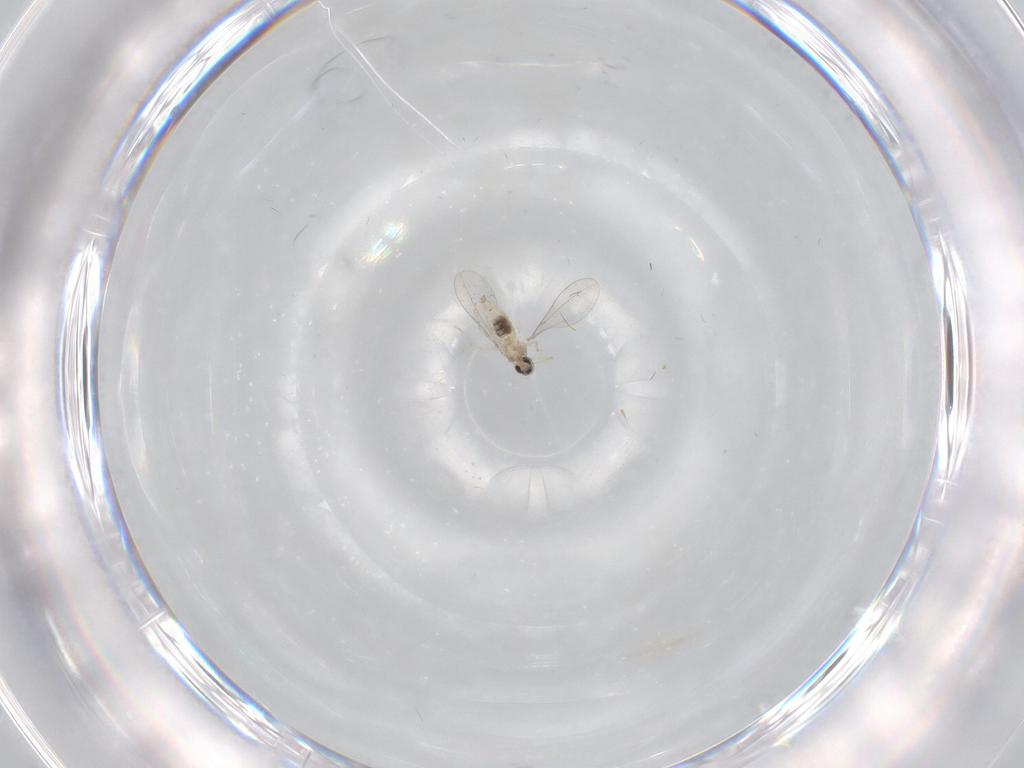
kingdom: Animalia
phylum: Arthropoda
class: Insecta
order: Diptera
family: Cecidomyiidae
